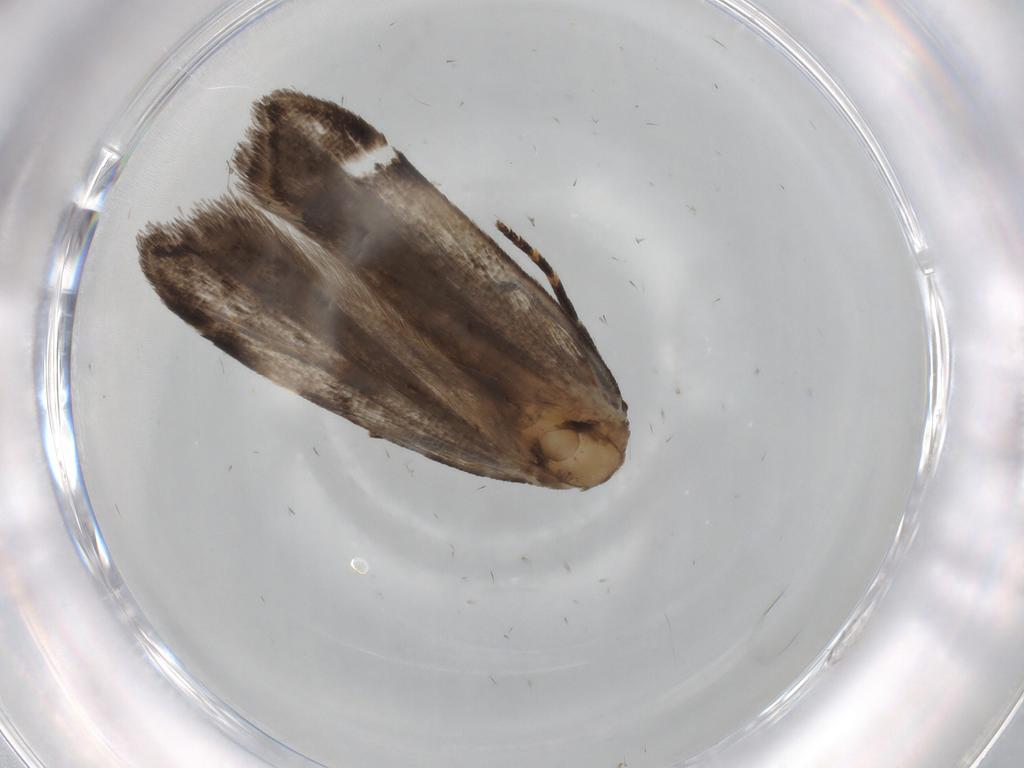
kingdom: Animalia
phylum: Arthropoda
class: Insecta
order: Lepidoptera
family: Gelechiidae
